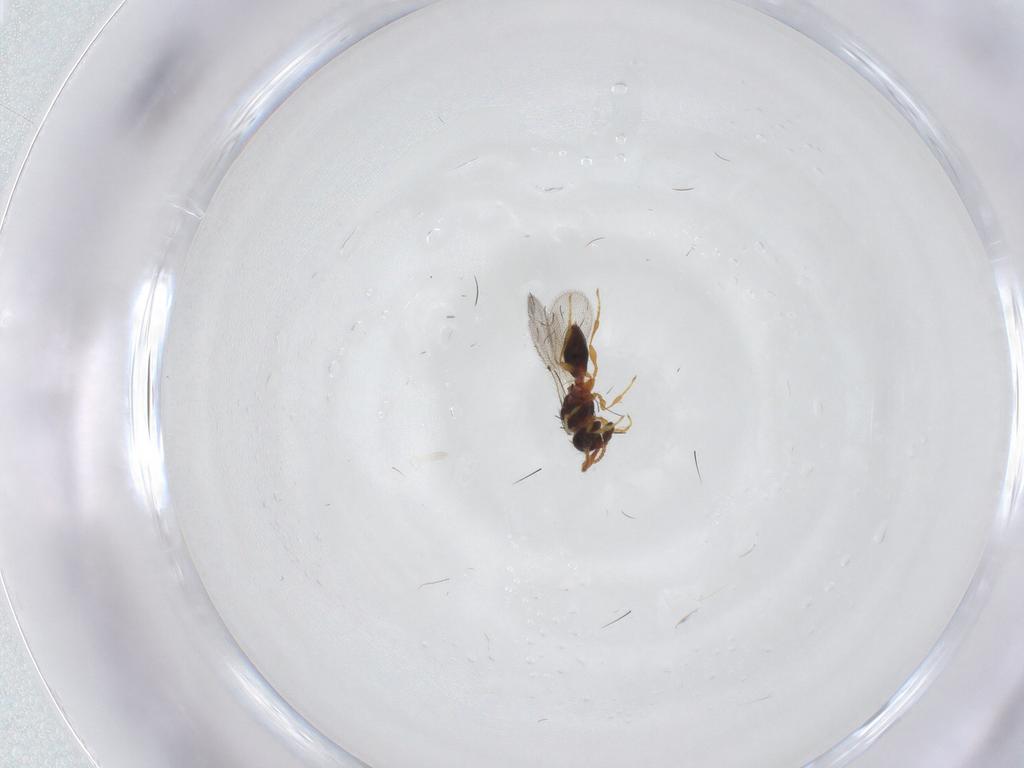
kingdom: Animalia
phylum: Arthropoda
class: Insecta
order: Hymenoptera
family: Diapriidae
